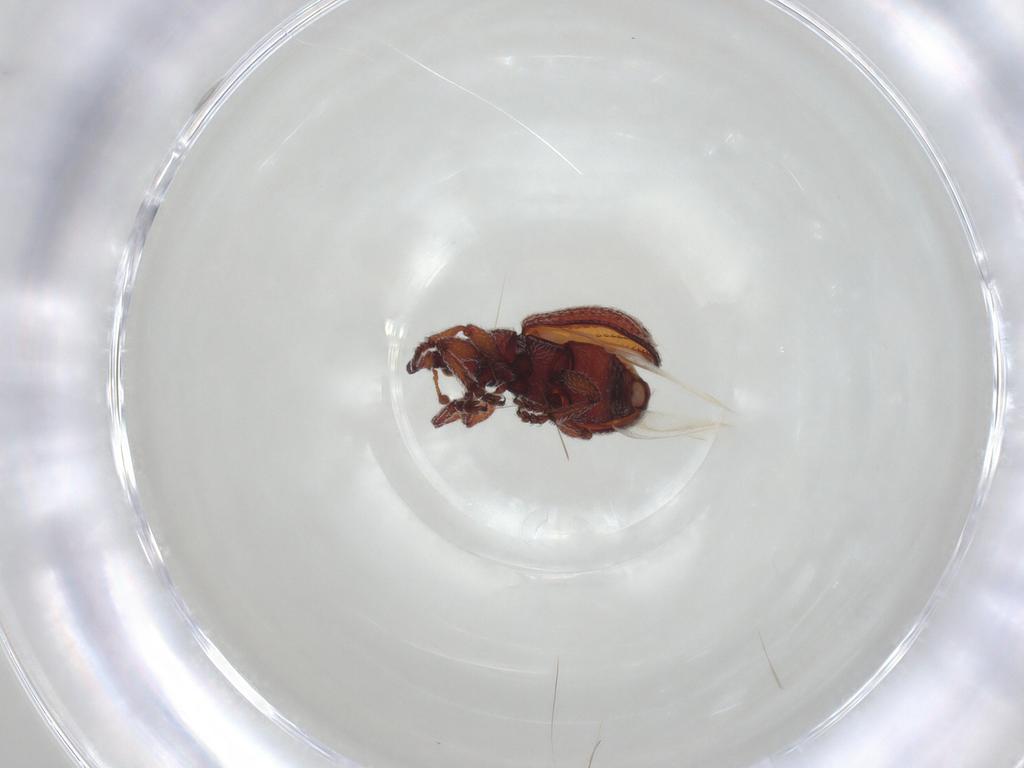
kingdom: Animalia
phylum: Arthropoda
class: Insecta
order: Coleoptera
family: Brentidae
